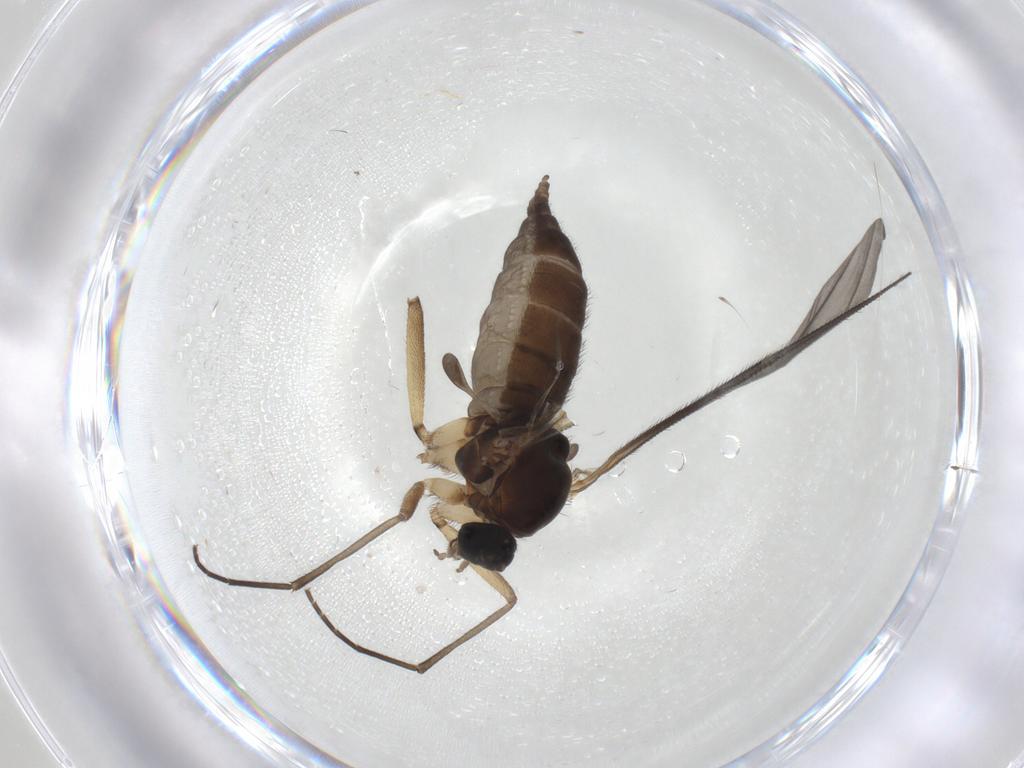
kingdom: Animalia
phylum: Arthropoda
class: Insecta
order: Diptera
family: Sciaridae
